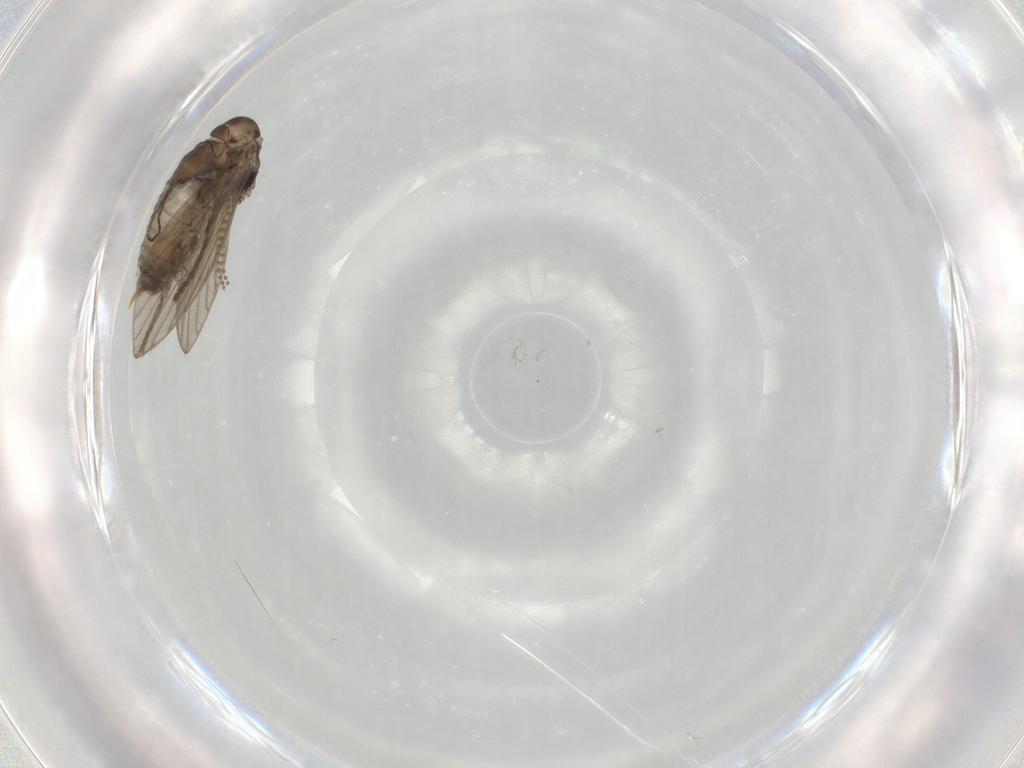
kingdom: Animalia
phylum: Arthropoda
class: Insecta
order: Diptera
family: Psychodidae
